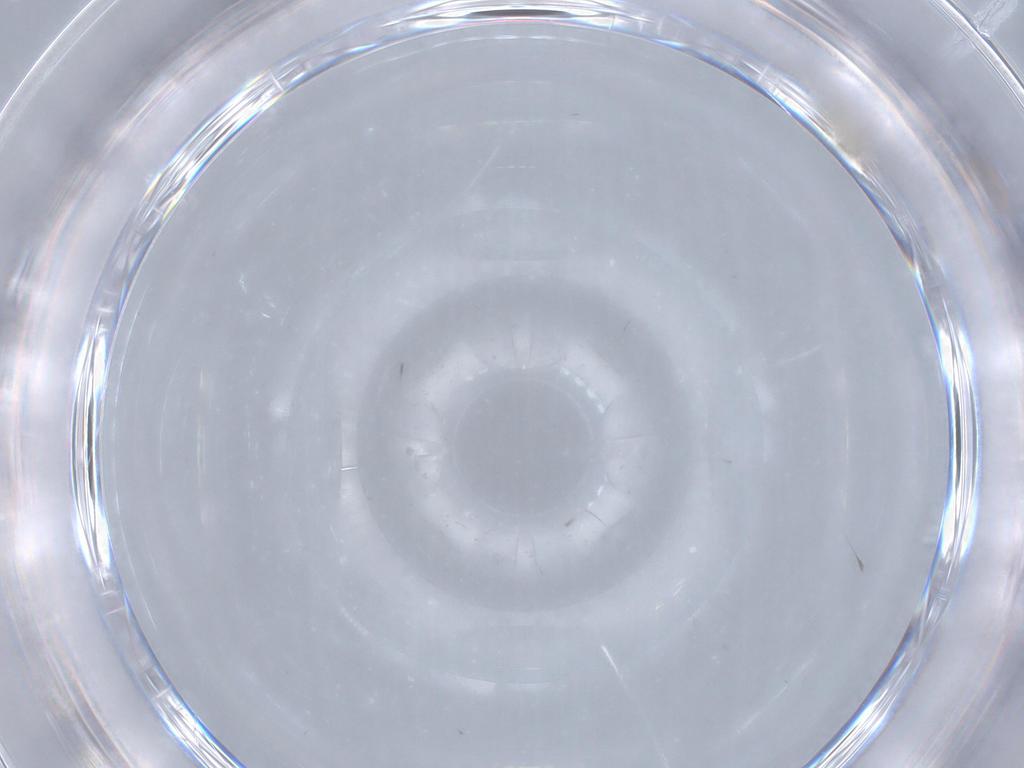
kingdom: Animalia
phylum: Arthropoda
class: Insecta
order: Diptera
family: Cecidomyiidae
